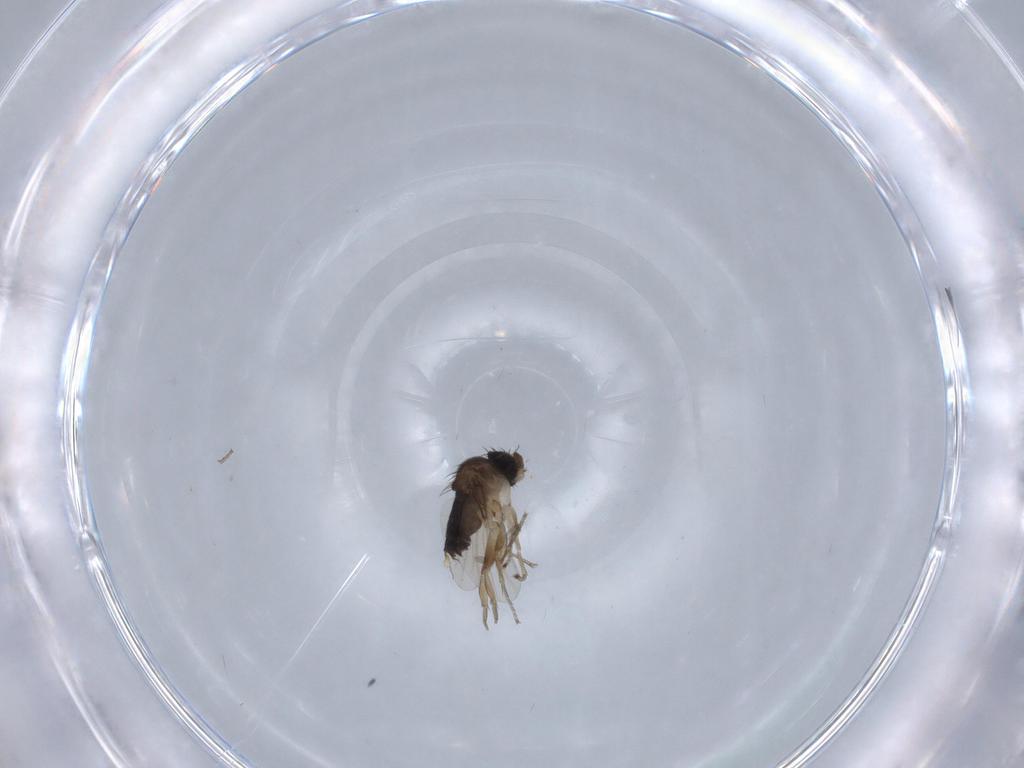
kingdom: Animalia
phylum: Arthropoda
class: Insecta
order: Diptera
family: Phoridae
